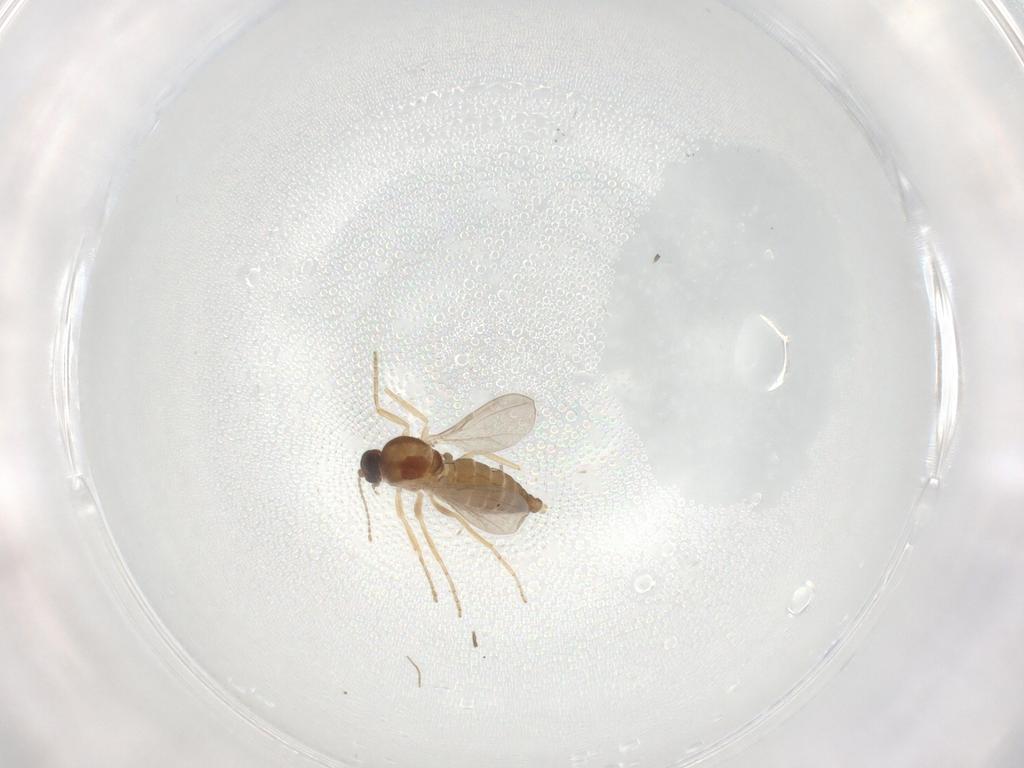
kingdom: Animalia
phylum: Arthropoda
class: Insecta
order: Diptera
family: Ceratopogonidae
